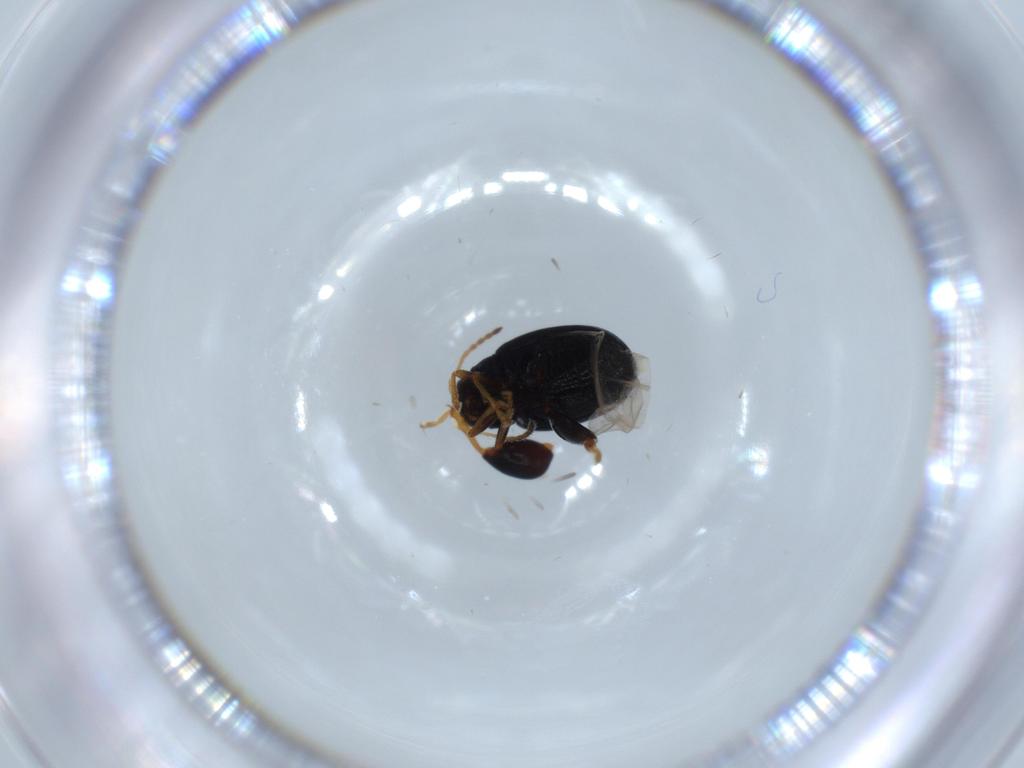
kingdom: Animalia
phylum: Arthropoda
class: Insecta
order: Coleoptera
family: Chrysomelidae
